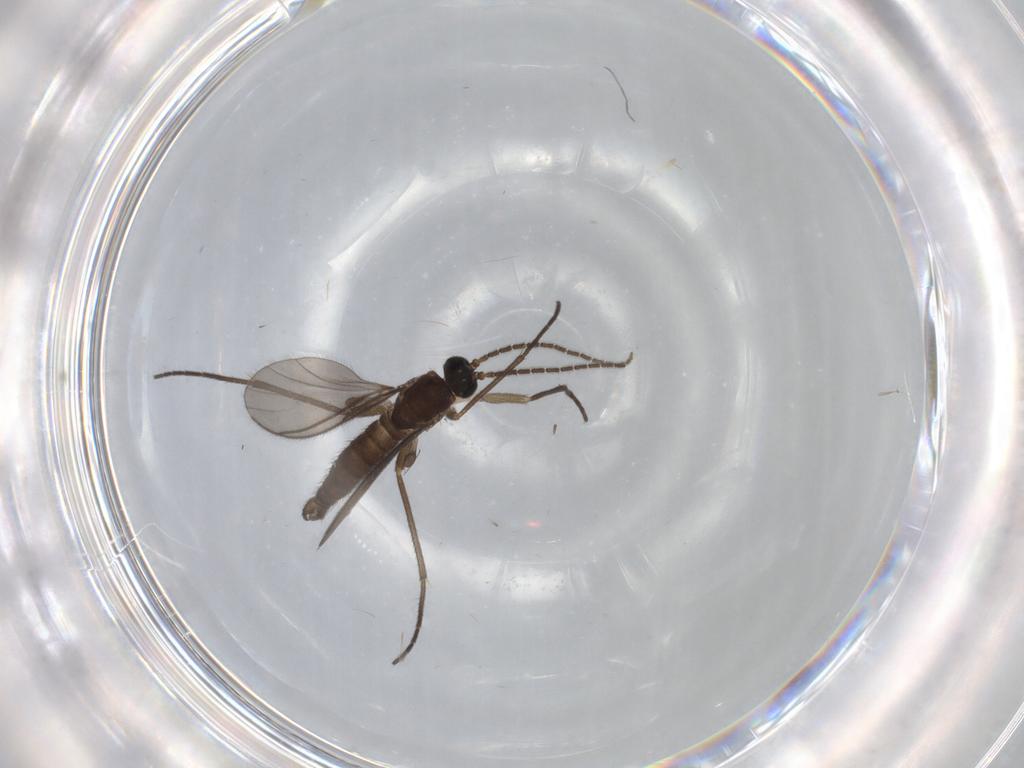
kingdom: Animalia
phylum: Arthropoda
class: Insecta
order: Diptera
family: Sciaridae
